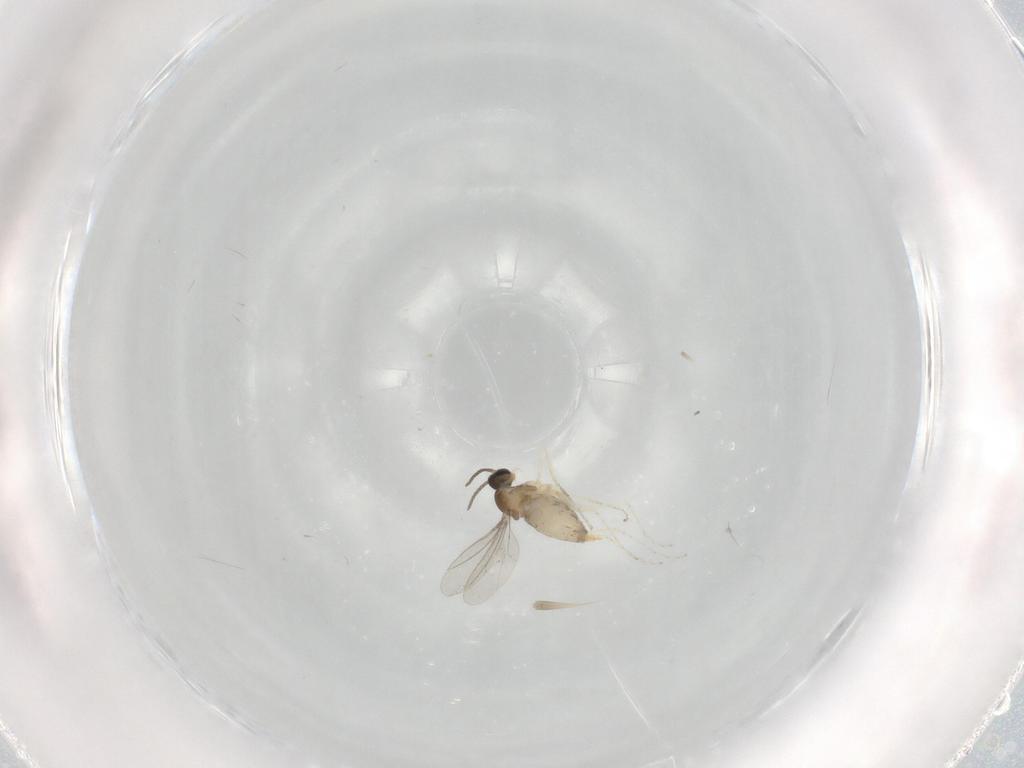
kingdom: Animalia
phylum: Arthropoda
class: Insecta
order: Diptera
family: Cecidomyiidae
